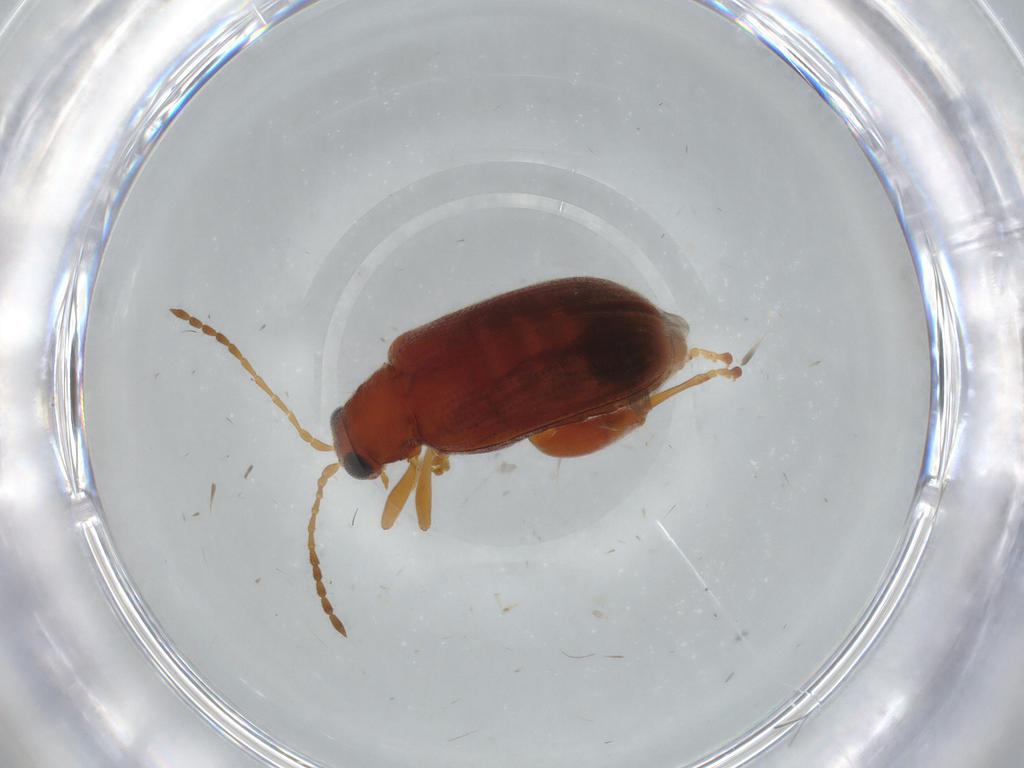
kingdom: Animalia
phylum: Arthropoda
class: Insecta
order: Coleoptera
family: Chrysomelidae
